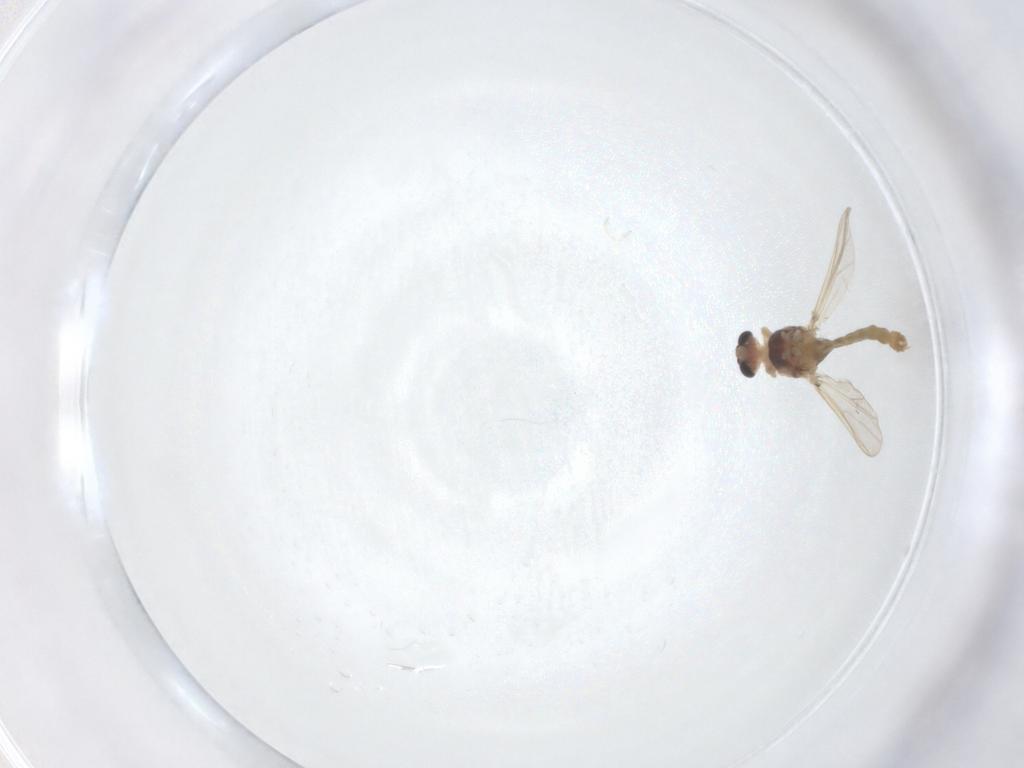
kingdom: Animalia
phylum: Arthropoda
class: Insecta
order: Diptera
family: Chironomidae
